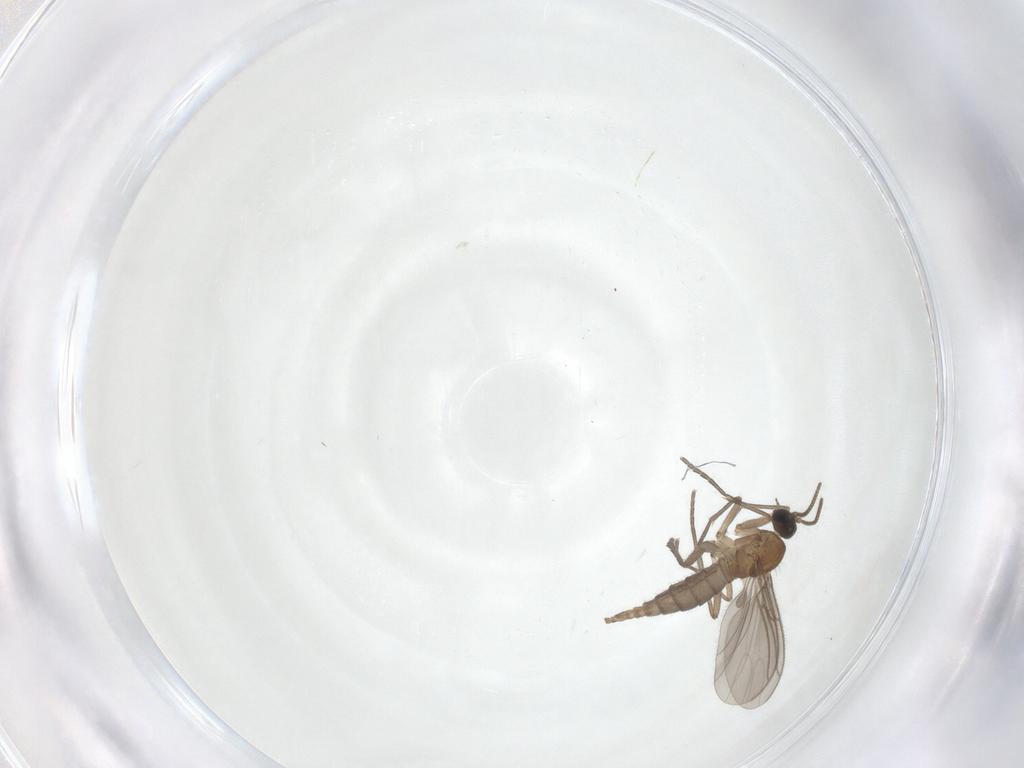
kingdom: Animalia
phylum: Arthropoda
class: Insecta
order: Diptera
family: Sciaridae
